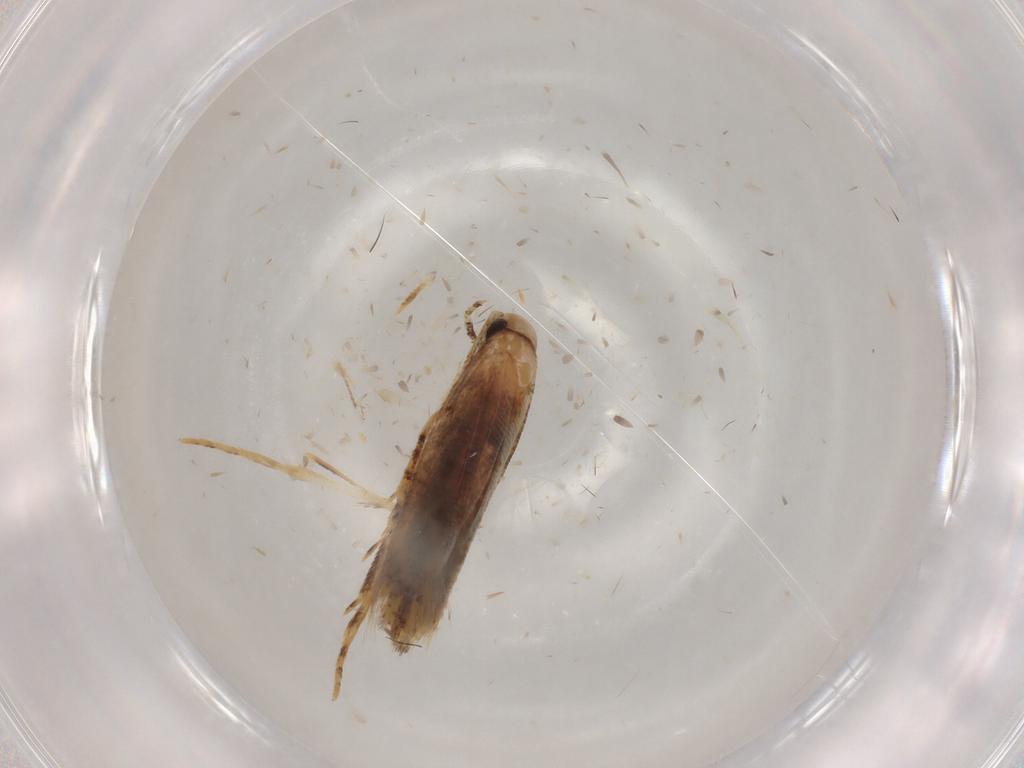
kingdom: Animalia
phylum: Arthropoda
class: Insecta
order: Lepidoptera
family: Gelechiidae
